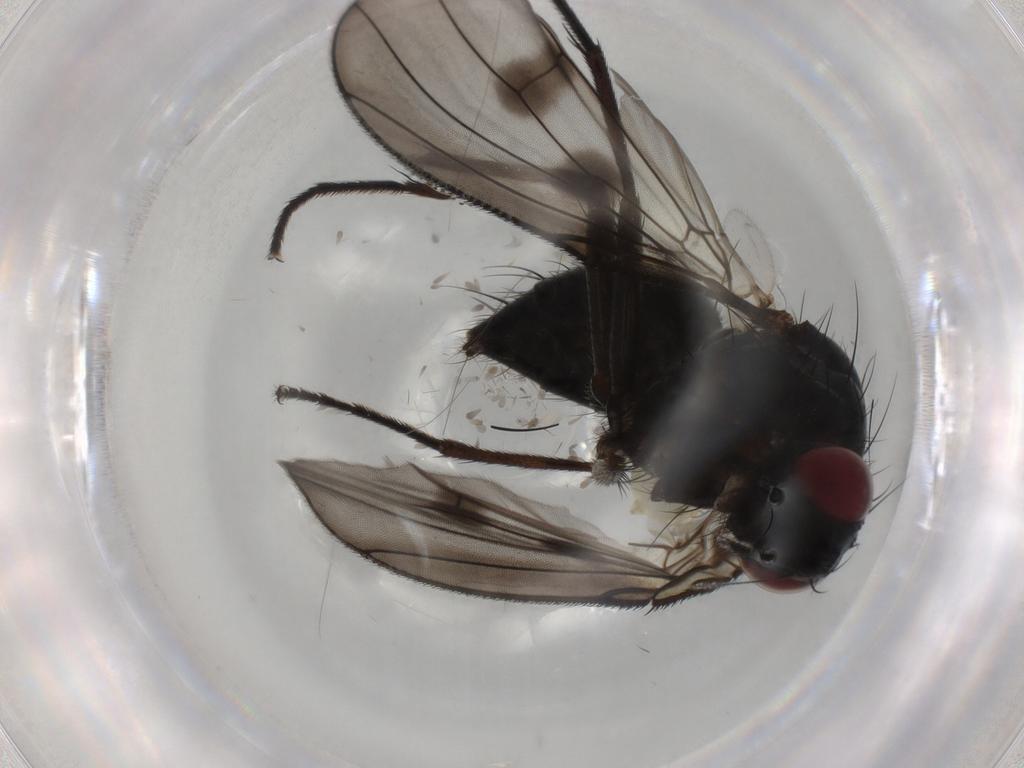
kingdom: Animalia
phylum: Arthropoda
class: Insecta
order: Diptera
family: Muscidae
